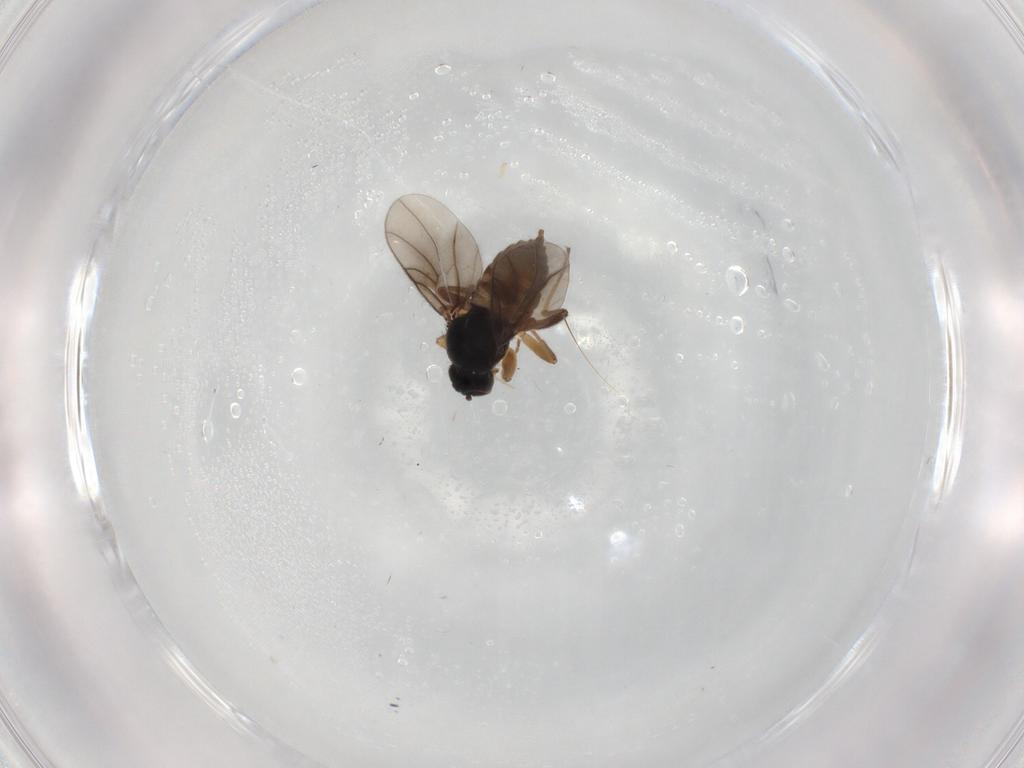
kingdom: Animalia
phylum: Arthropoda
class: Insecta
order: Diptera
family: Hybotidae
